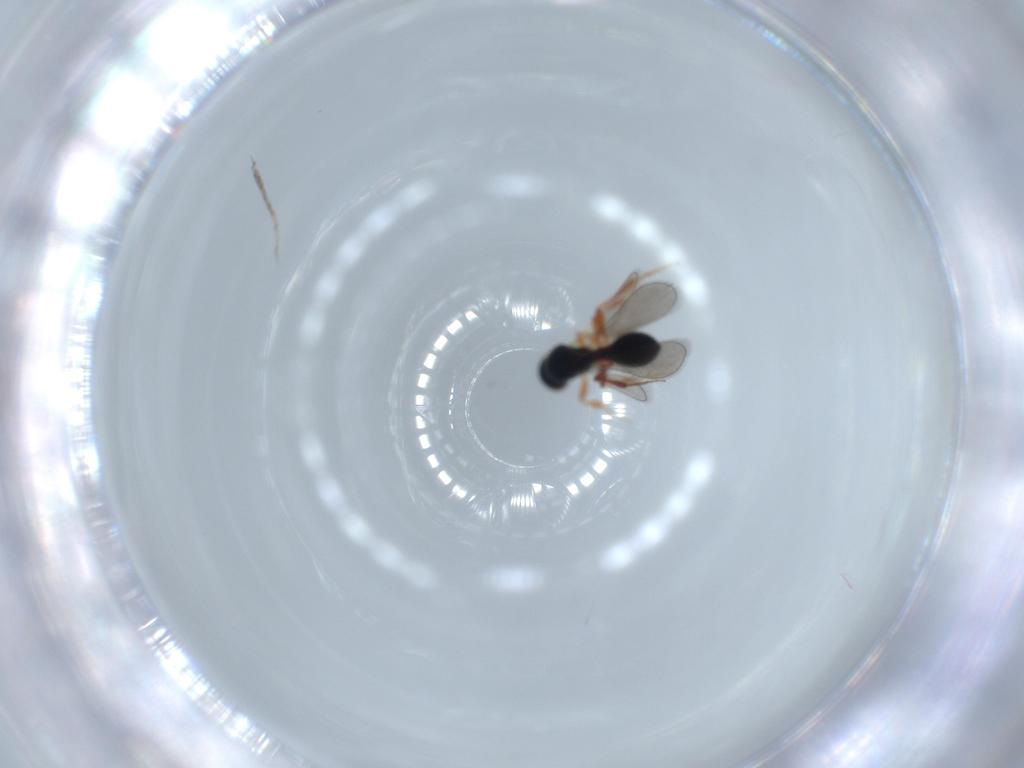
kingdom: Animalia
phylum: Arthropoda
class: Insecta
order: Hymenoptera
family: Platygastridae
